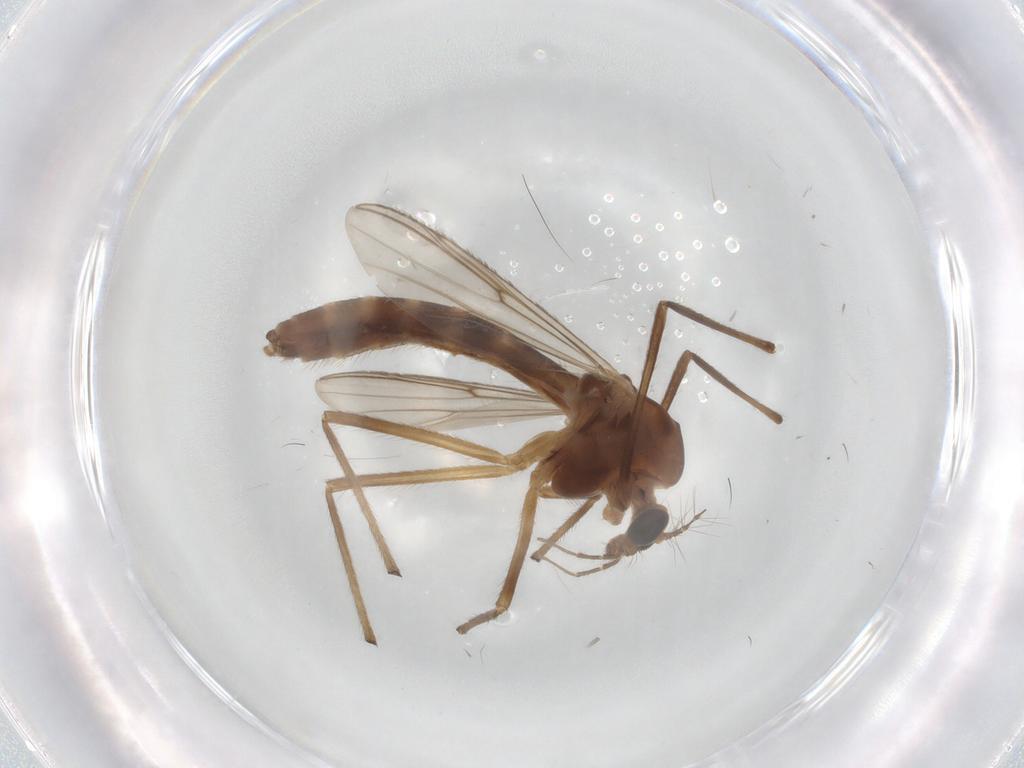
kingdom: Animalia
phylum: Arthropoda
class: Insecta
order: Diptera
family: Chironomidae
